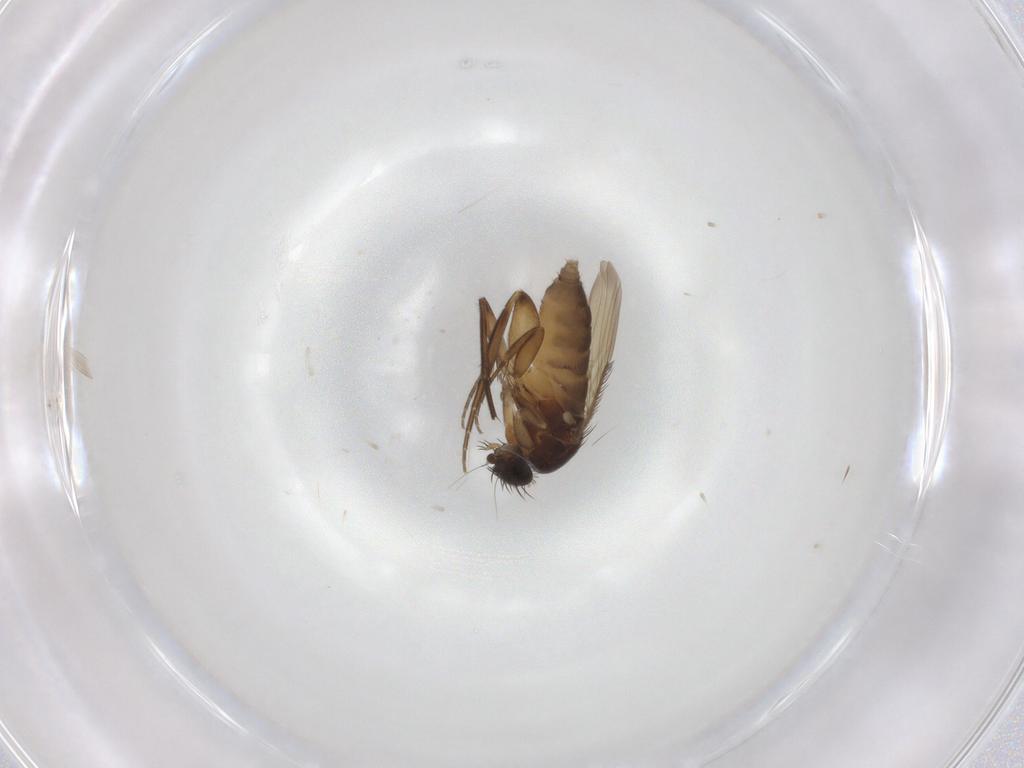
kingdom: Animalia
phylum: Arthropoda
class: Insecta
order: Diptera
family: Phoridae
